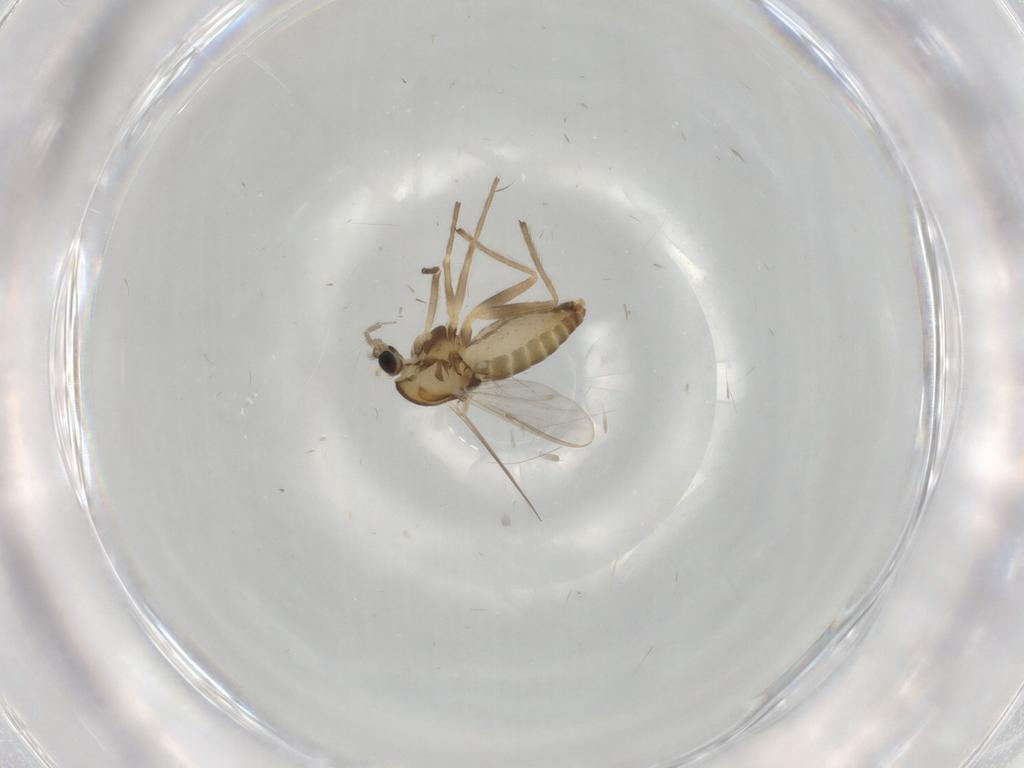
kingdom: Animalia
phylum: Arthropoda
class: Insecta
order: Diptera
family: Chironomidae
